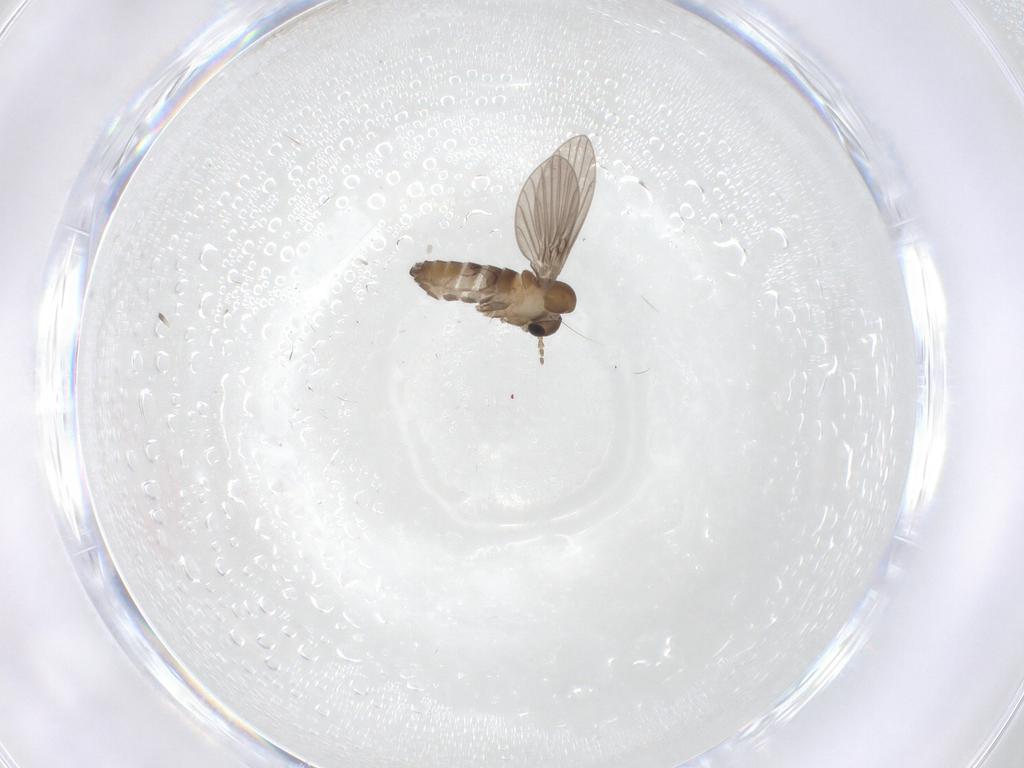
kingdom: Animalia
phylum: Arthropoda
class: Insecta
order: Diptera
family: Psychodidae
